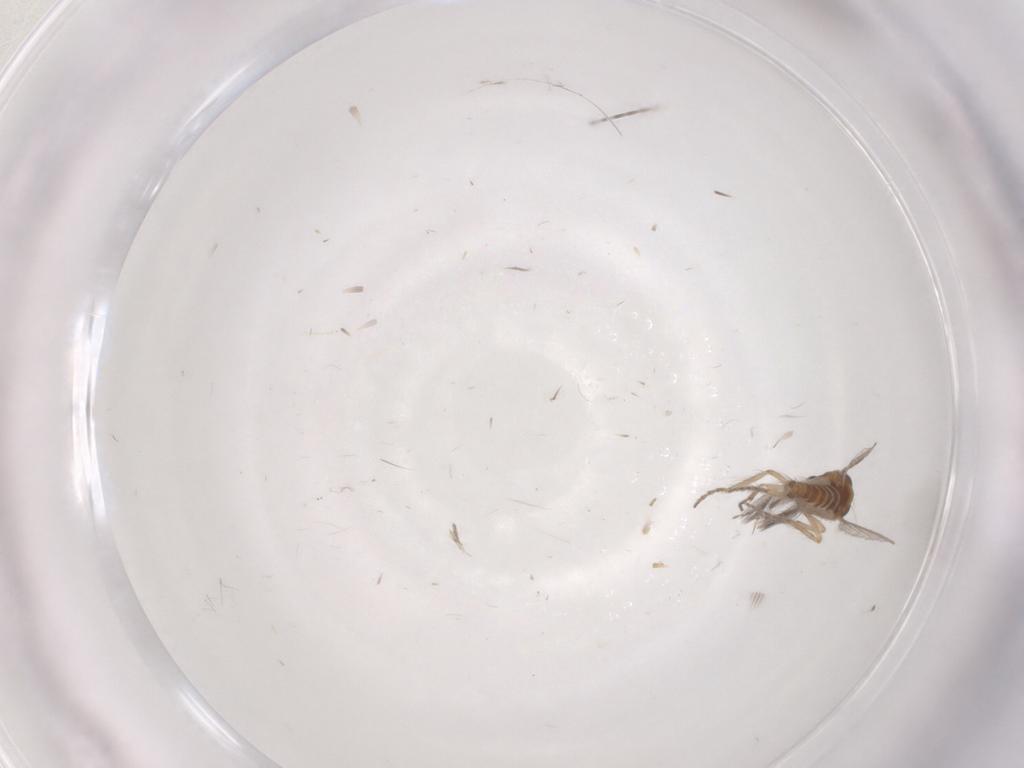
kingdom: Animalia
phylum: Arthropoda
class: Insecta
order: Diptera
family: Ceratopogonidae
